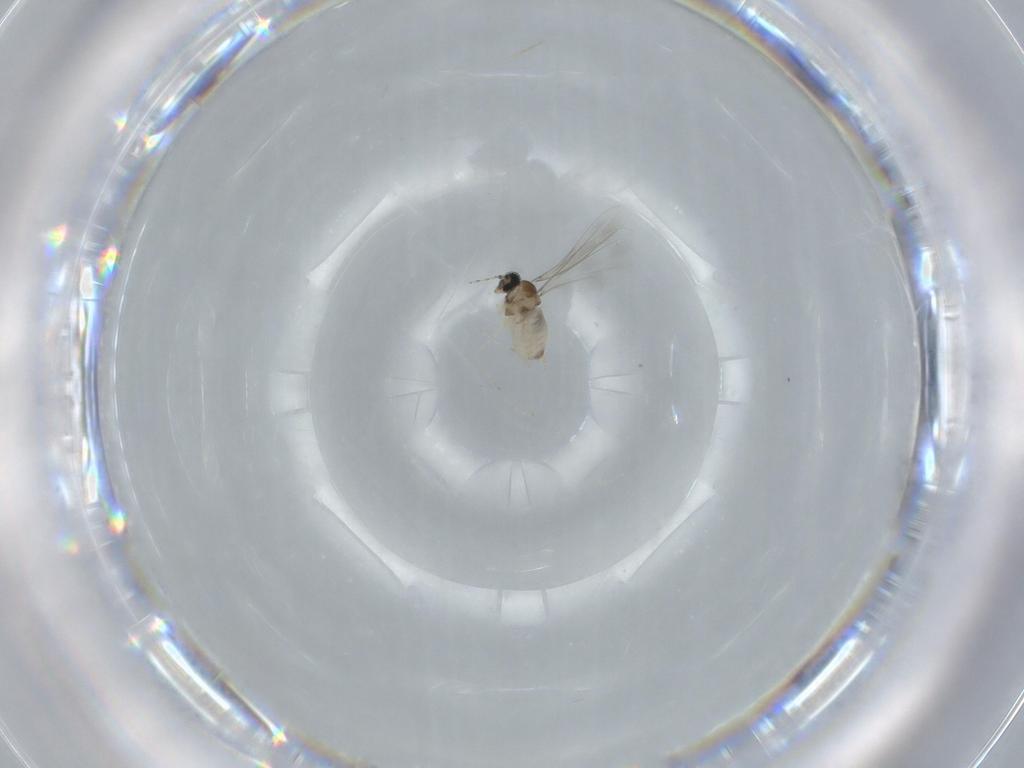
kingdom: Animalia
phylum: Arthropoda
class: Insecta
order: Diptera
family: Cecidomyiidae
